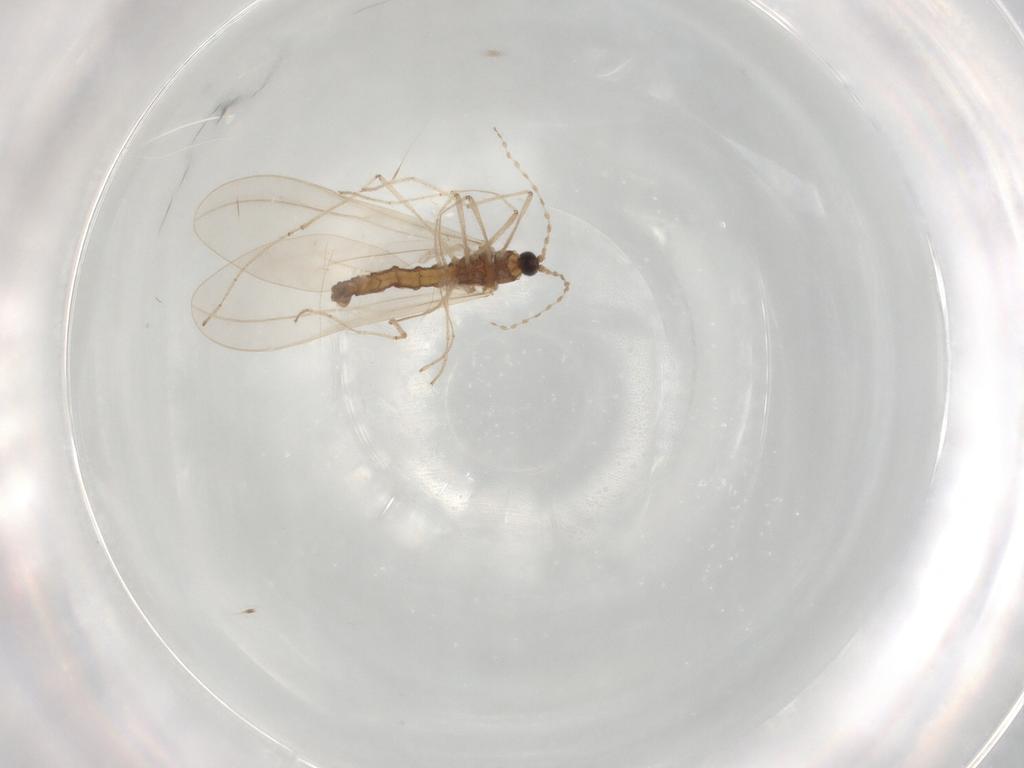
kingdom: Animalia
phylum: Arthropoda
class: Insecta
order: Diptera
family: Cecidomyiidae
